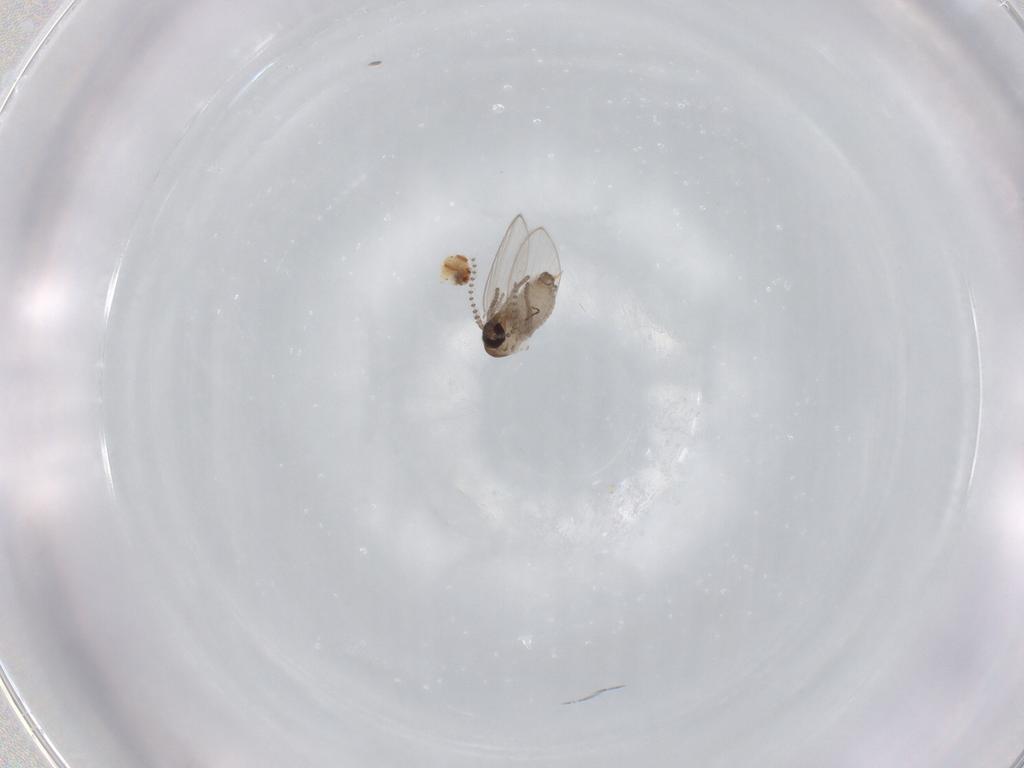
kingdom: Animalia
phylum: Arthropoda
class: Insecta
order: Diptera
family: Psychodidae
